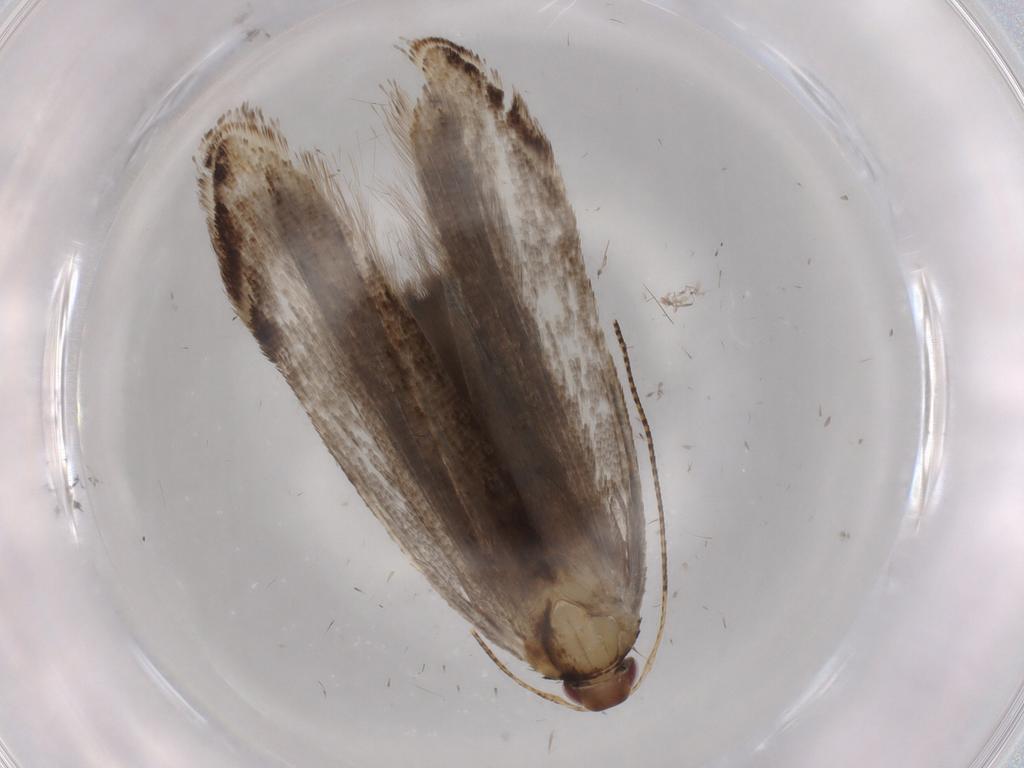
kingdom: Animalia
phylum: Arthropoda
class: Insecta
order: Lepidoptera
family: Gelechiidae
